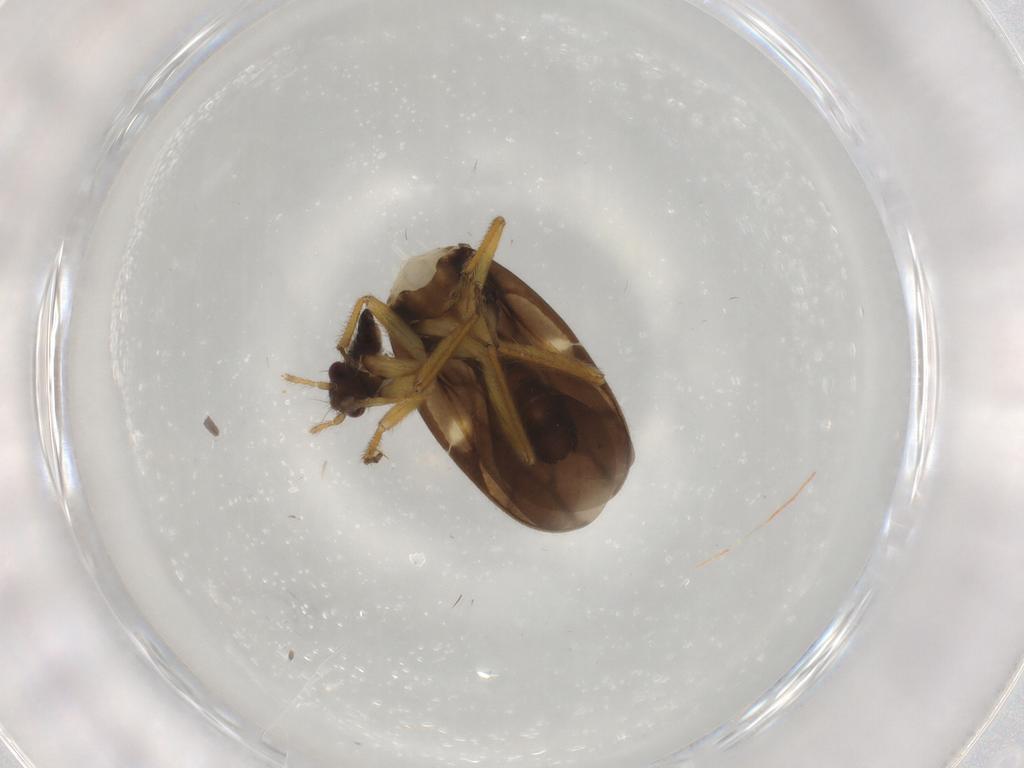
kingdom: Animalia
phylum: Arthropoda
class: Insecta
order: Hemiptera
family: Ceratocombidae
